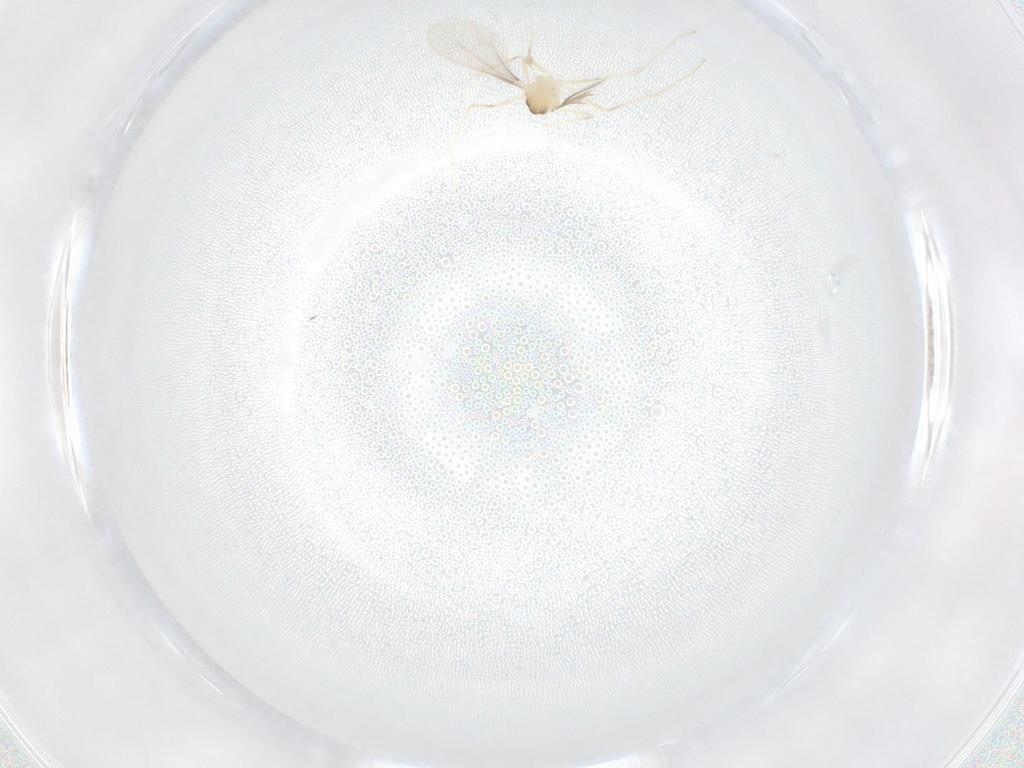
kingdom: Animalia
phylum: Arthropoda
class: Insecta
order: Diptera
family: Cecidomyiidae
